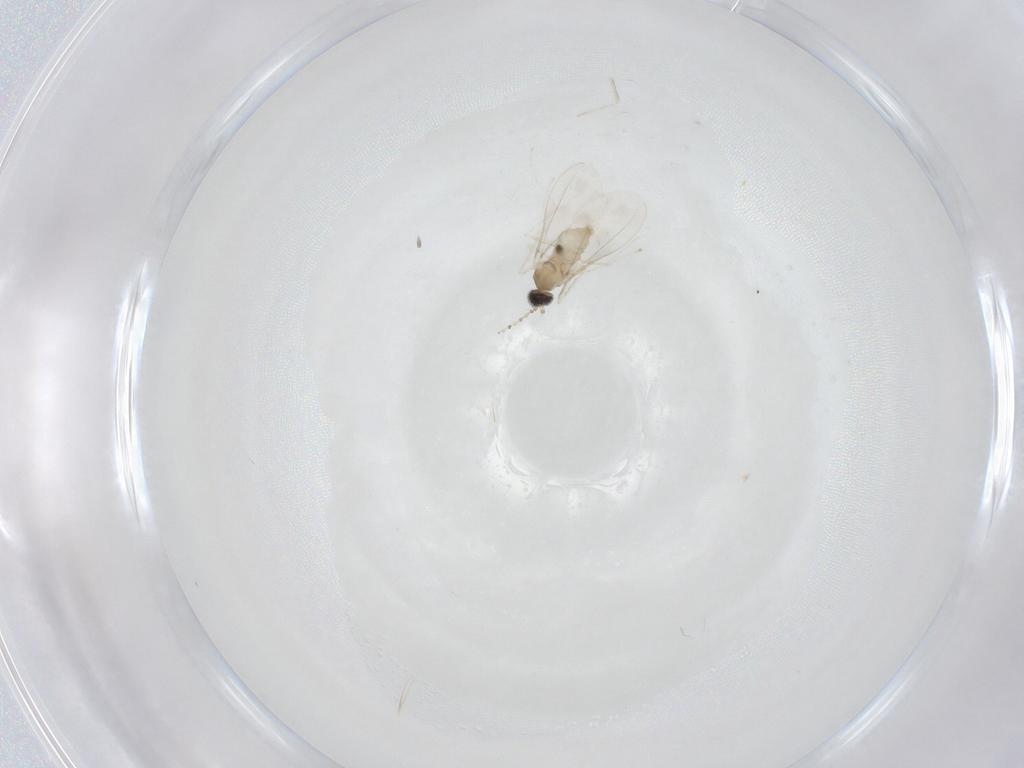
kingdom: Animalia
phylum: Arthropoda
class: Insecta
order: Diptera
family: Cecidomyiidae
